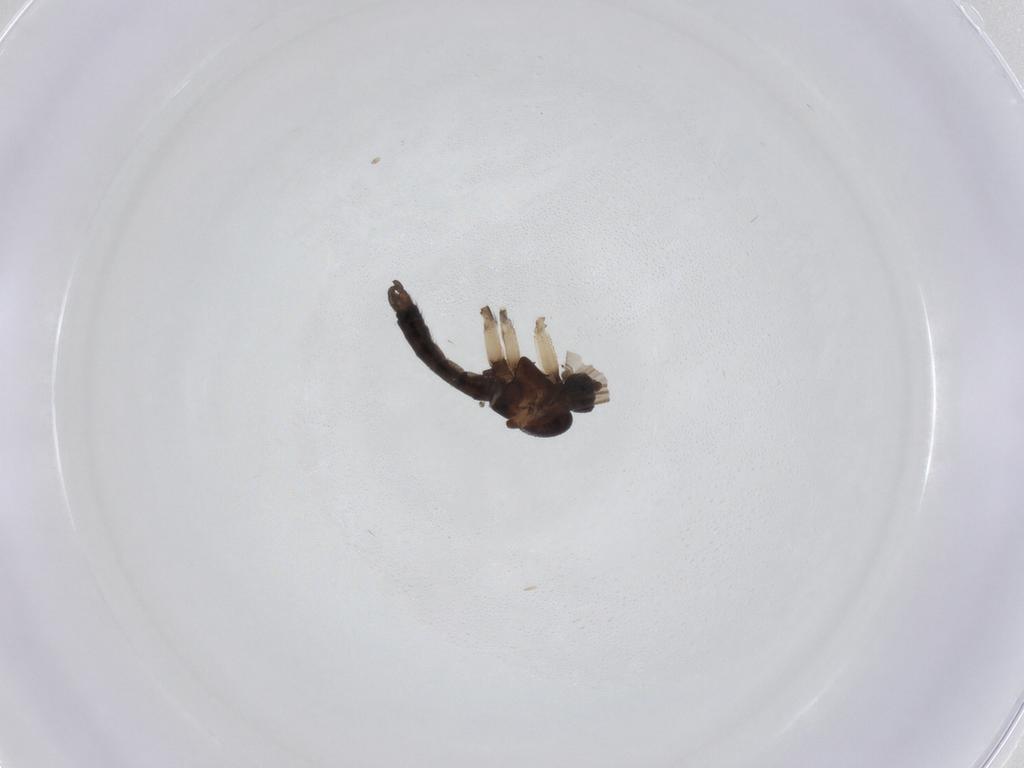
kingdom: Animalia
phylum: Arthropoda
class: Insecta
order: Diptera
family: Sciaridae
